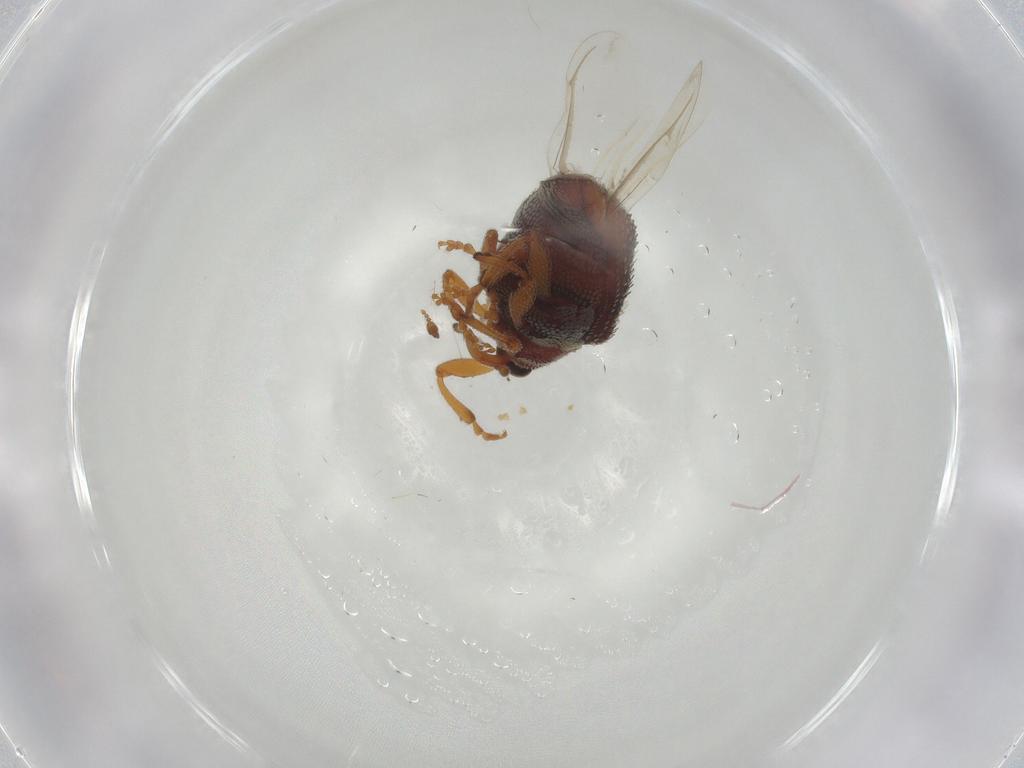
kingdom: Animalia
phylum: Arthropoda
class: Insecta
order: Coleoptera
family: Curculionidae
